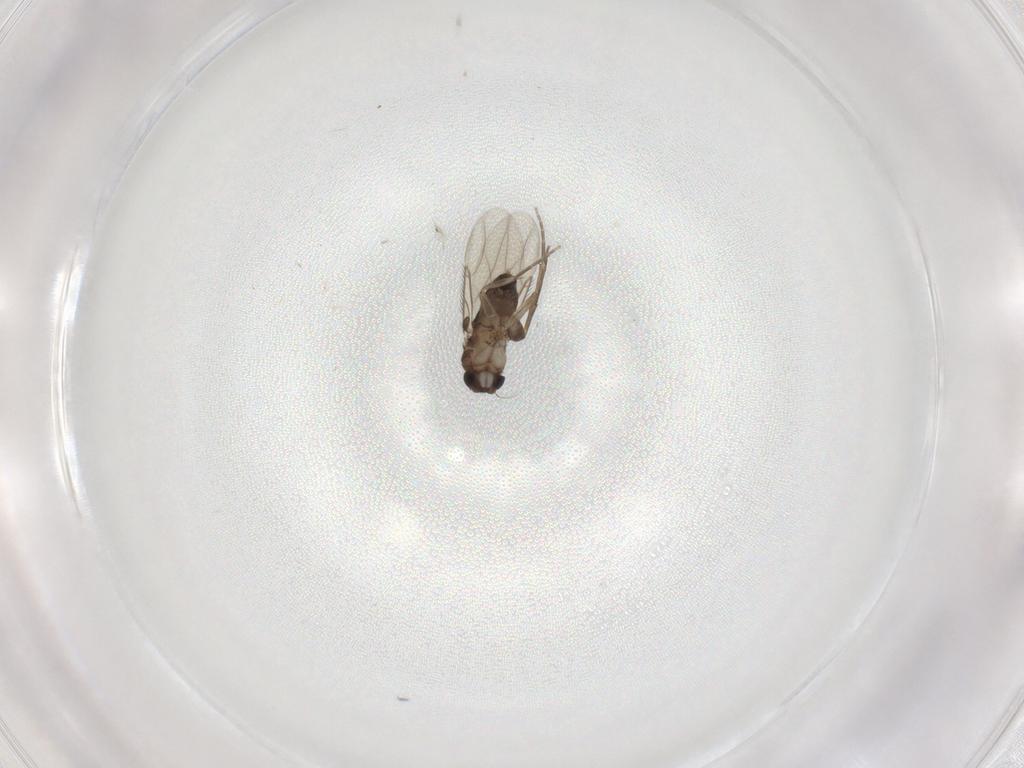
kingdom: Animalia
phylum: Arthropoda
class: Insecta
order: Diptera
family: Phoridae
